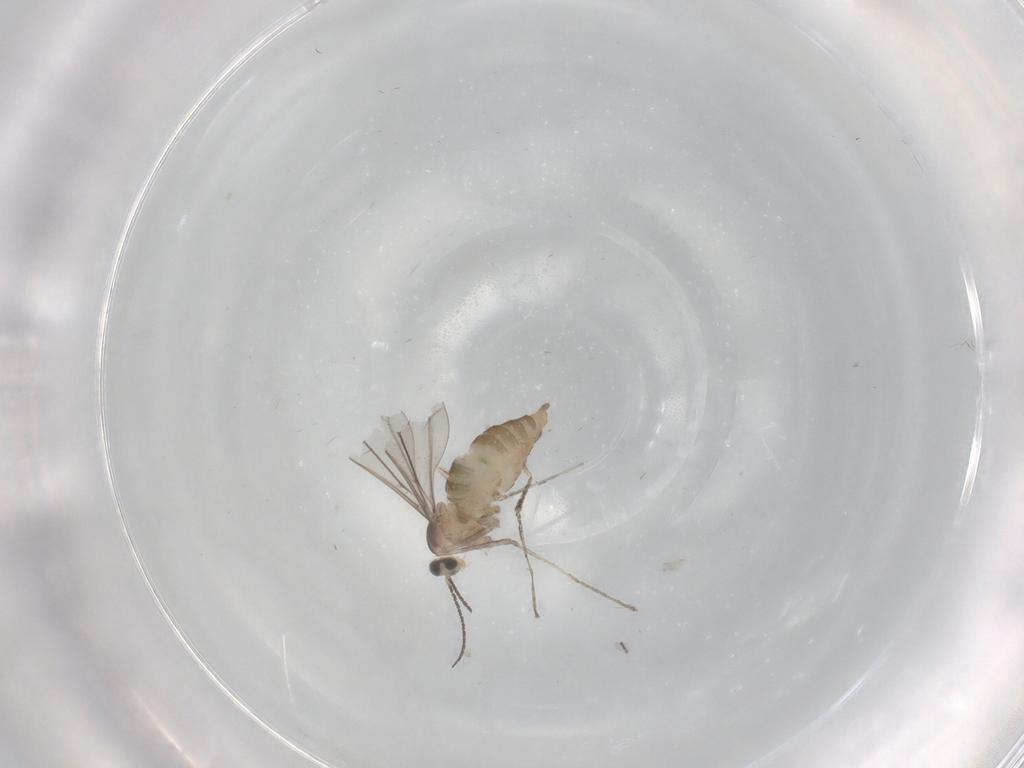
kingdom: Animalia
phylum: Arthropoda
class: Insecta
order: Diptera
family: Cecidomyiidae
